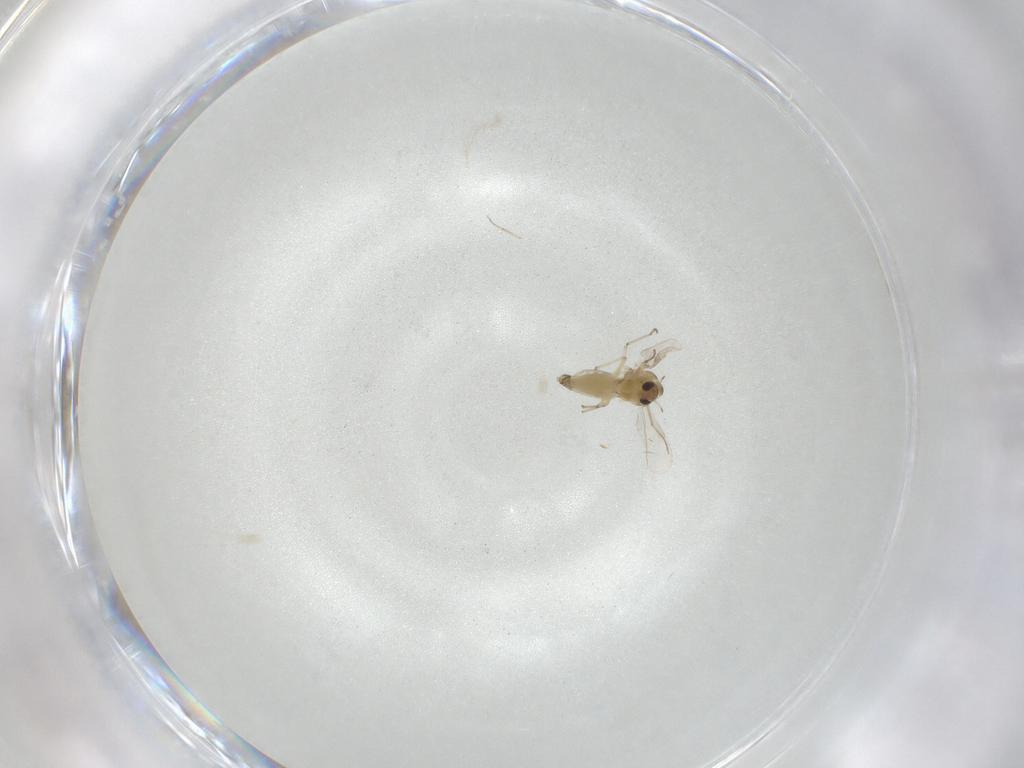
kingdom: Animalia
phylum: Arthropoda
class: Insecta
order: Diptera
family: Chironomidae
